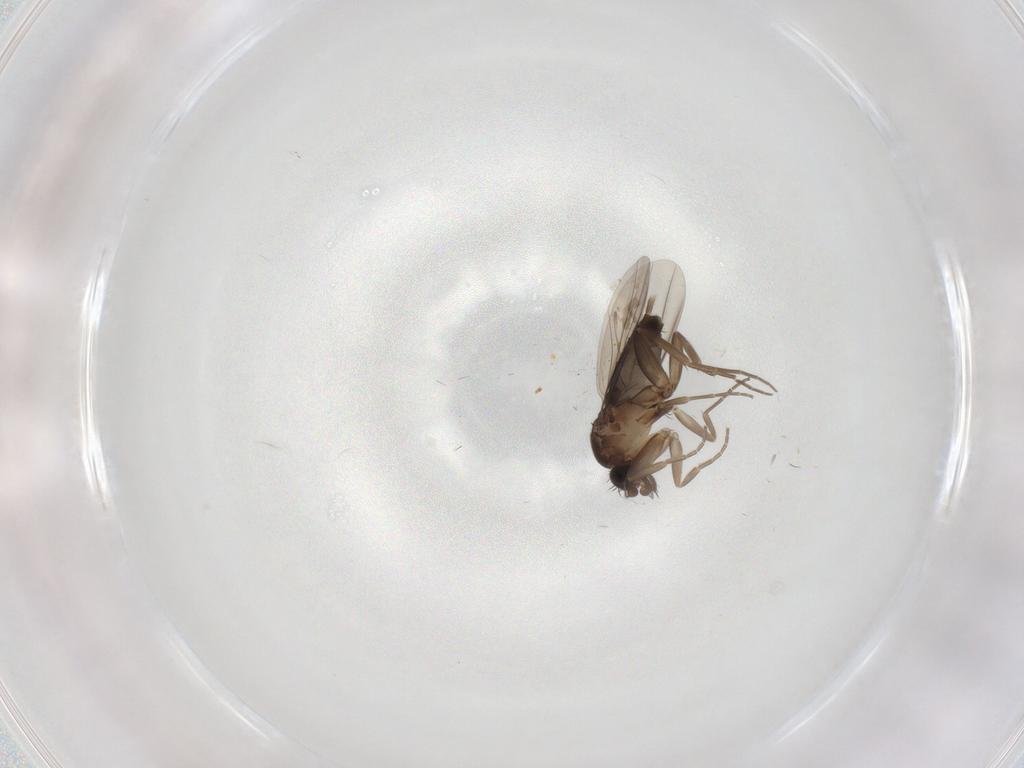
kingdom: Animalia
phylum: Arthropoda
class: Insecta
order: Diptera
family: Phoridae
